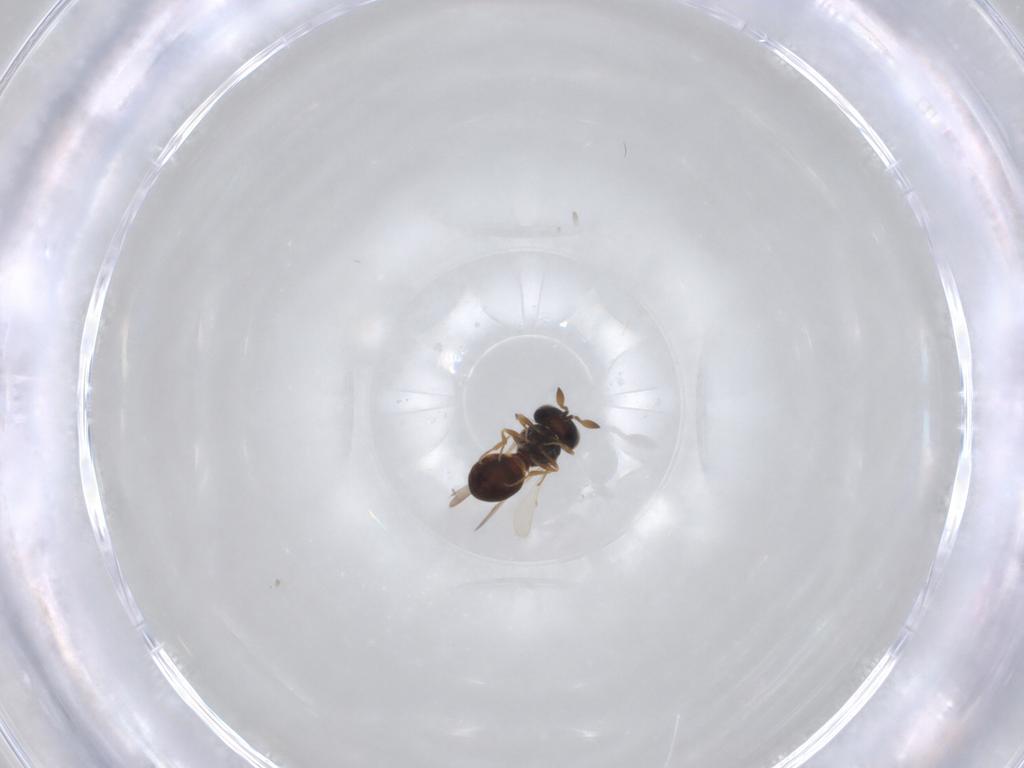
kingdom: Animalia
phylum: Arthropoda
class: Insecta
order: Hymenoptera
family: Scelionidae
